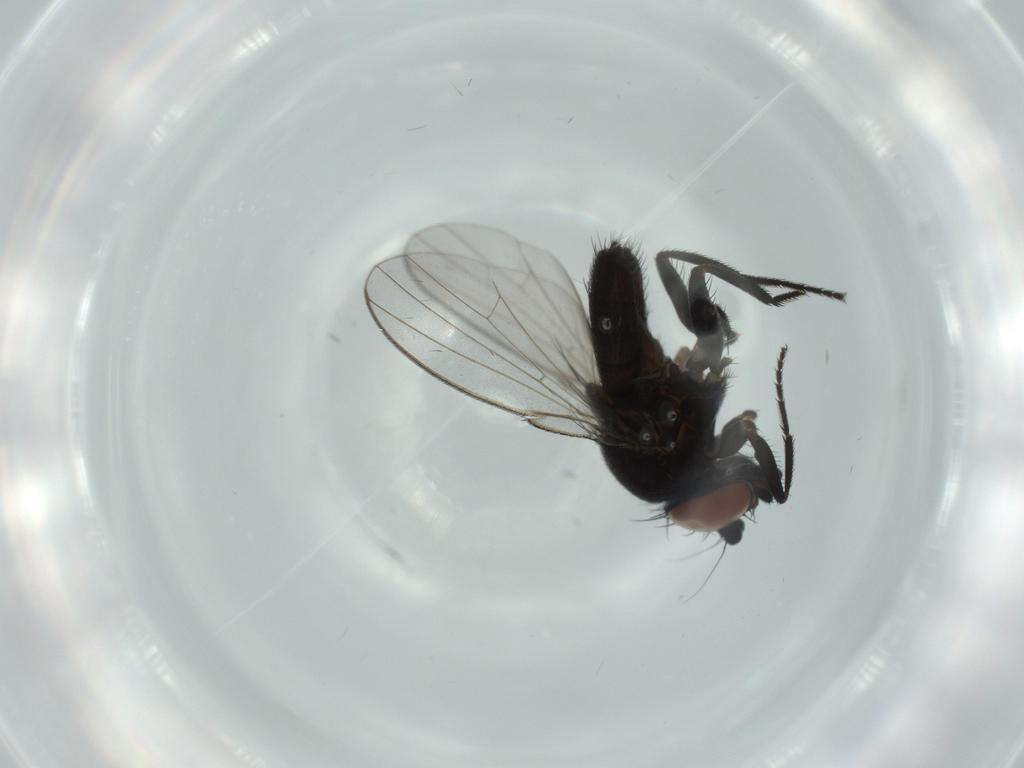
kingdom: Animalia
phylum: Arthropoda
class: Insecta
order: Diptera
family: Milichiidae
